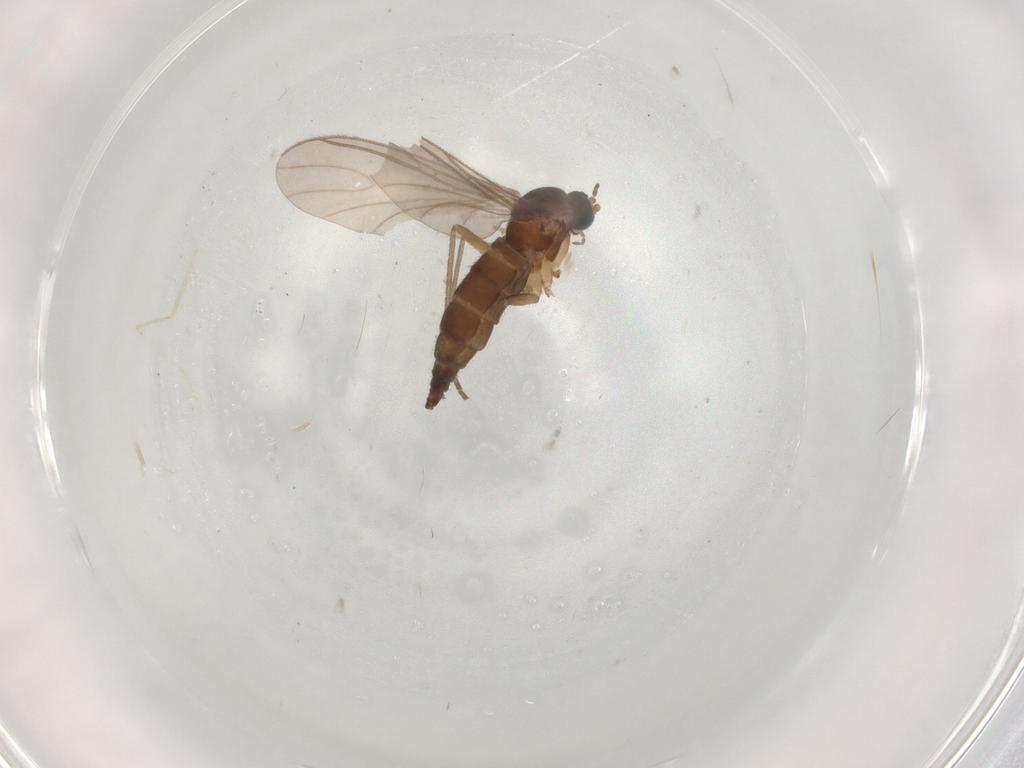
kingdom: Animalia
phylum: Arthropoda
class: Insecta
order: Diptera
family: Sciaridae
